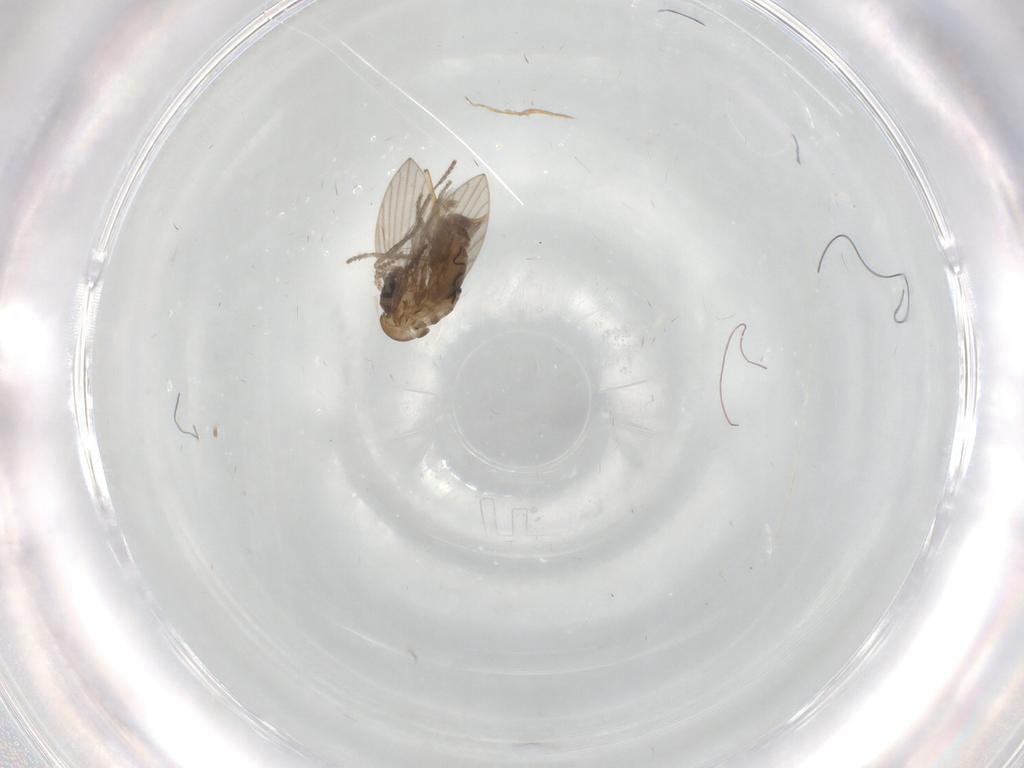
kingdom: Animalia
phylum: Arthropoda
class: Insecta
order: Diptera
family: Psychodidae
